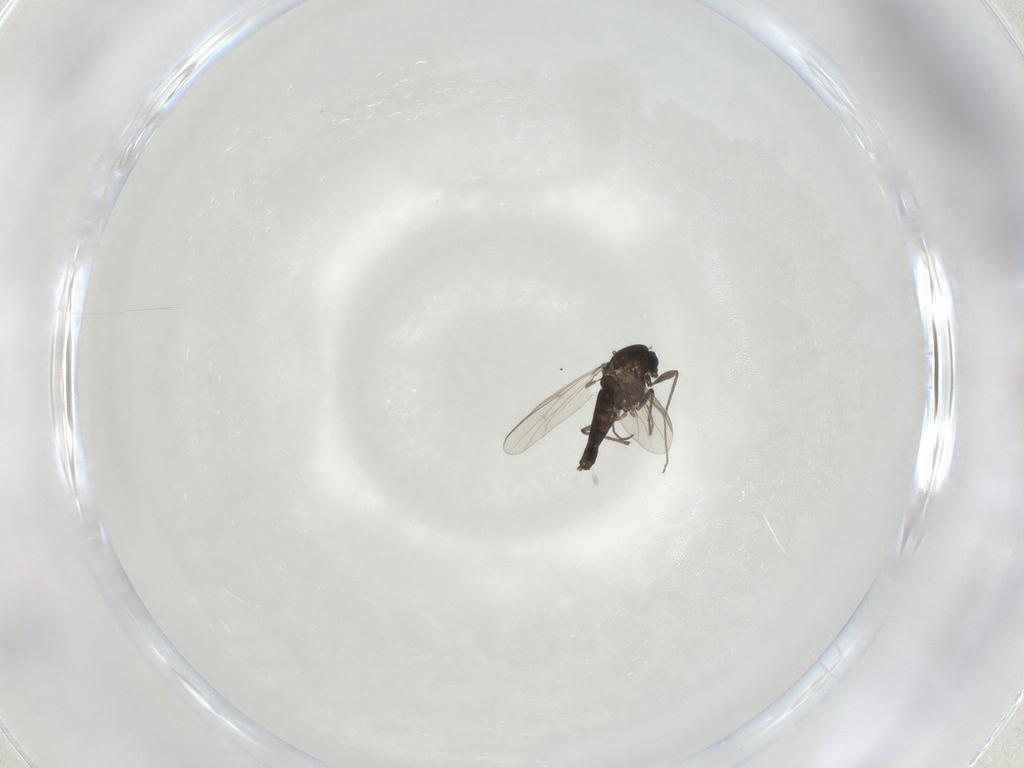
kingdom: Animalia
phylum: Arthropoda
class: Insecta
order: Diptera
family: Chironomidae
